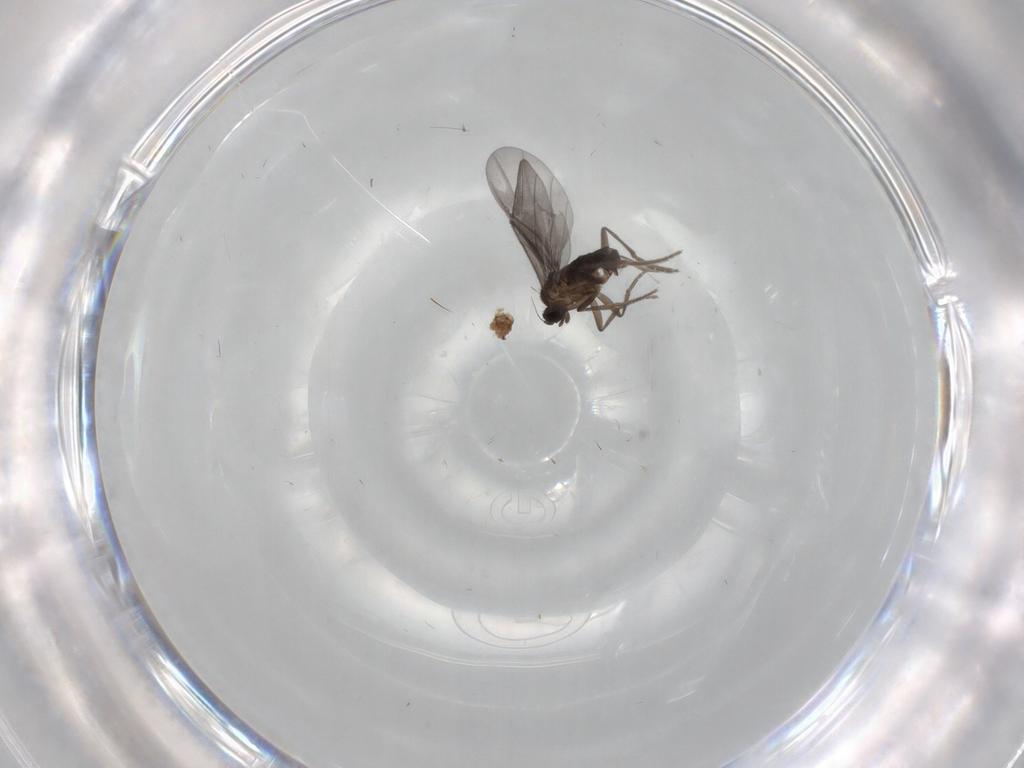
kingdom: Animalia
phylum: Arthropoda
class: Insecta
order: Diptera
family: Phoridae
